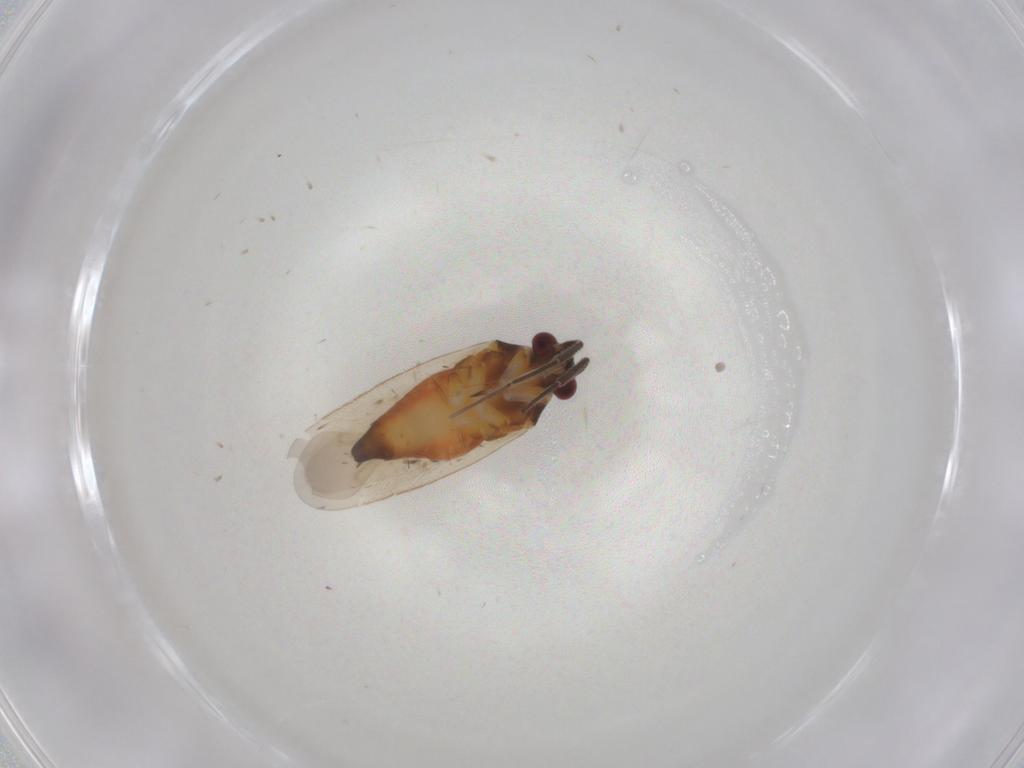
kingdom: Animalia
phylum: Arthropoda
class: Insecta
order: Hemiptera
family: Miridae
